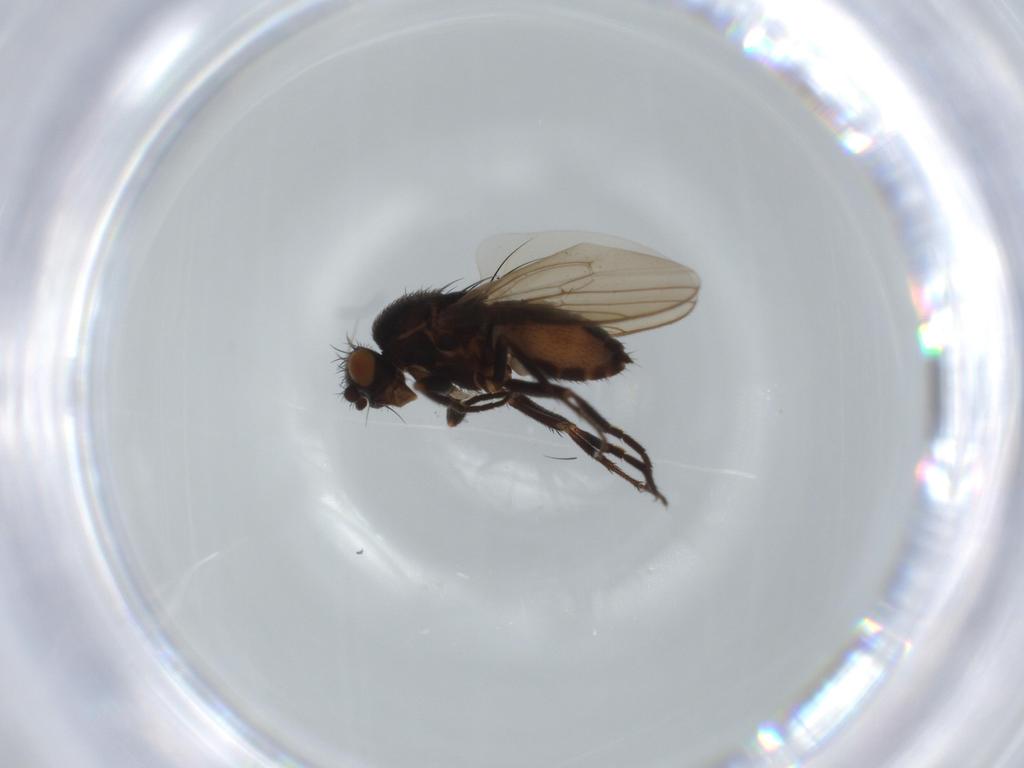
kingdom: Animalia
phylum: Arthropoda
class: Insecta
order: Diptera
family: Sphaeroceridae
